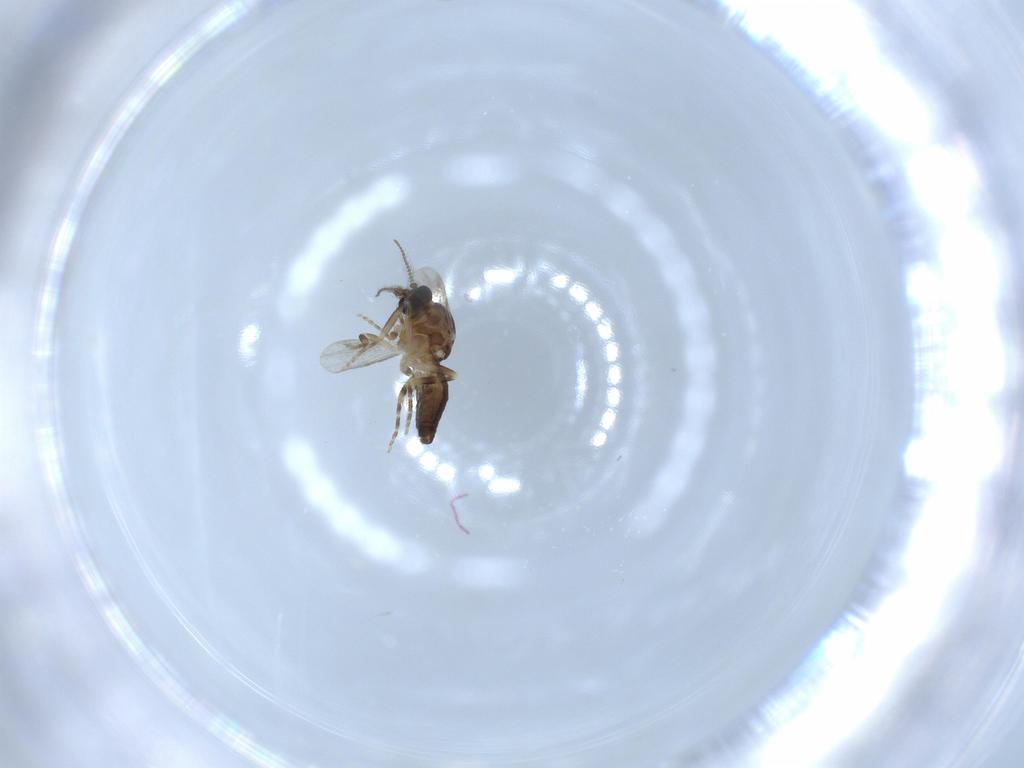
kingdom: Animalia
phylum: Arthropoda
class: Insecta
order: Diptera
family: Ceratopogonidae
